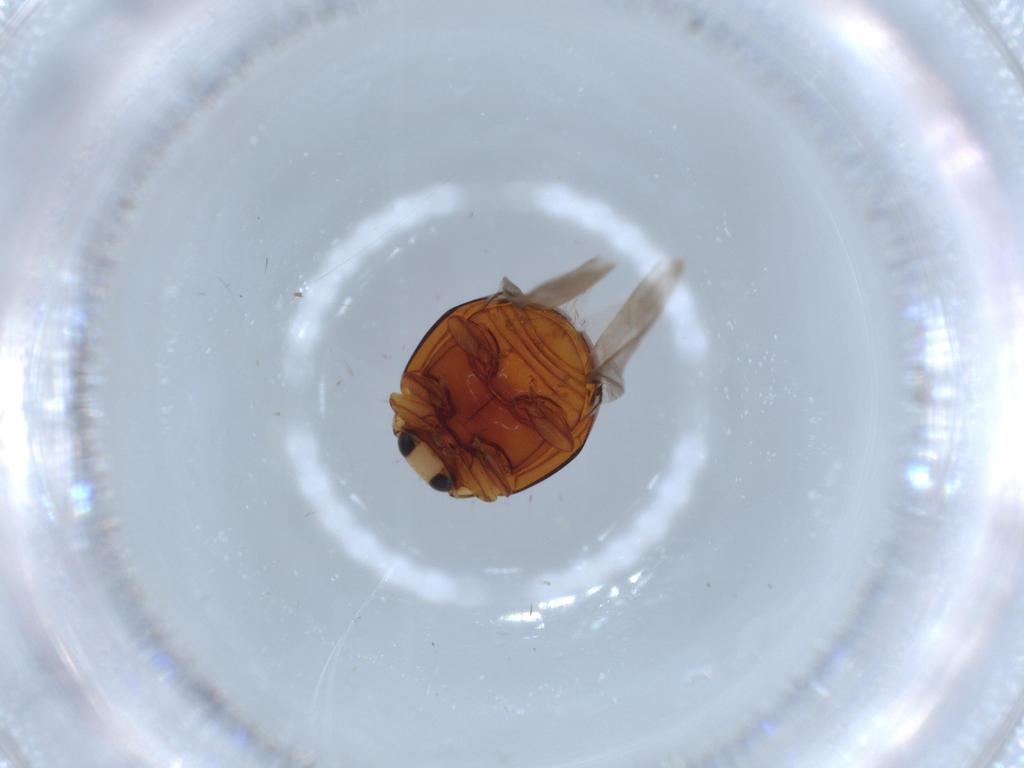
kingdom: Animalia
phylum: Arthropoda
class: Insecta
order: Coleoptera
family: Coccinellidae
